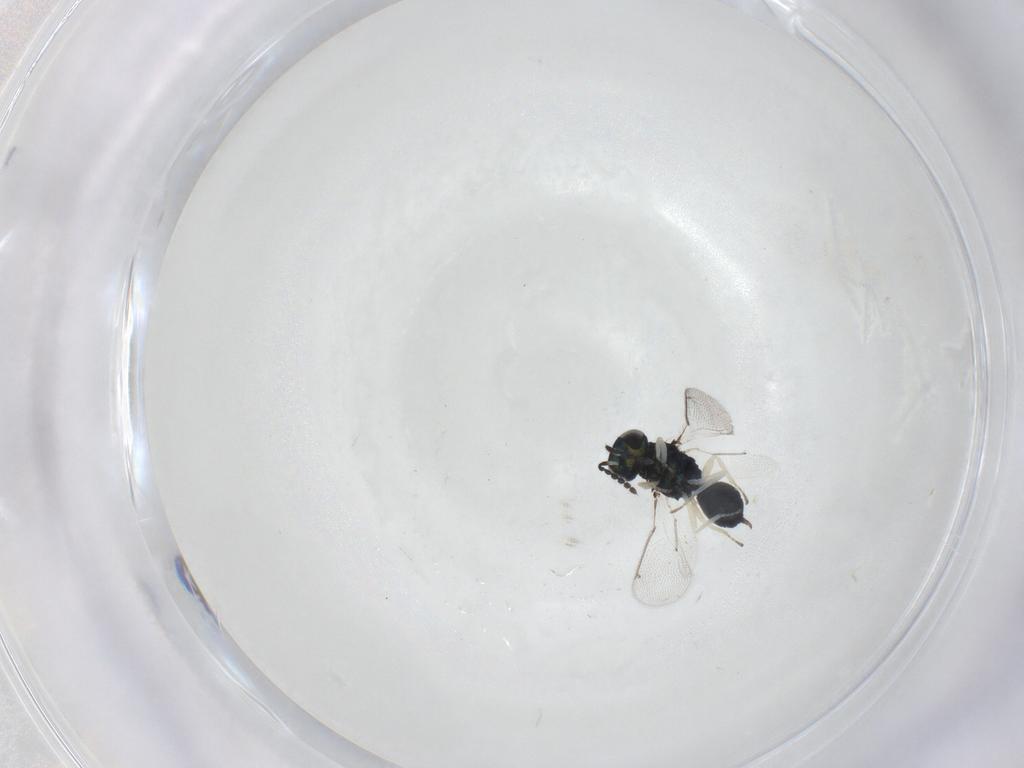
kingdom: Animalia
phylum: Arthropoda
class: Insecta
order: Hymenoptera
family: Eulophidae
